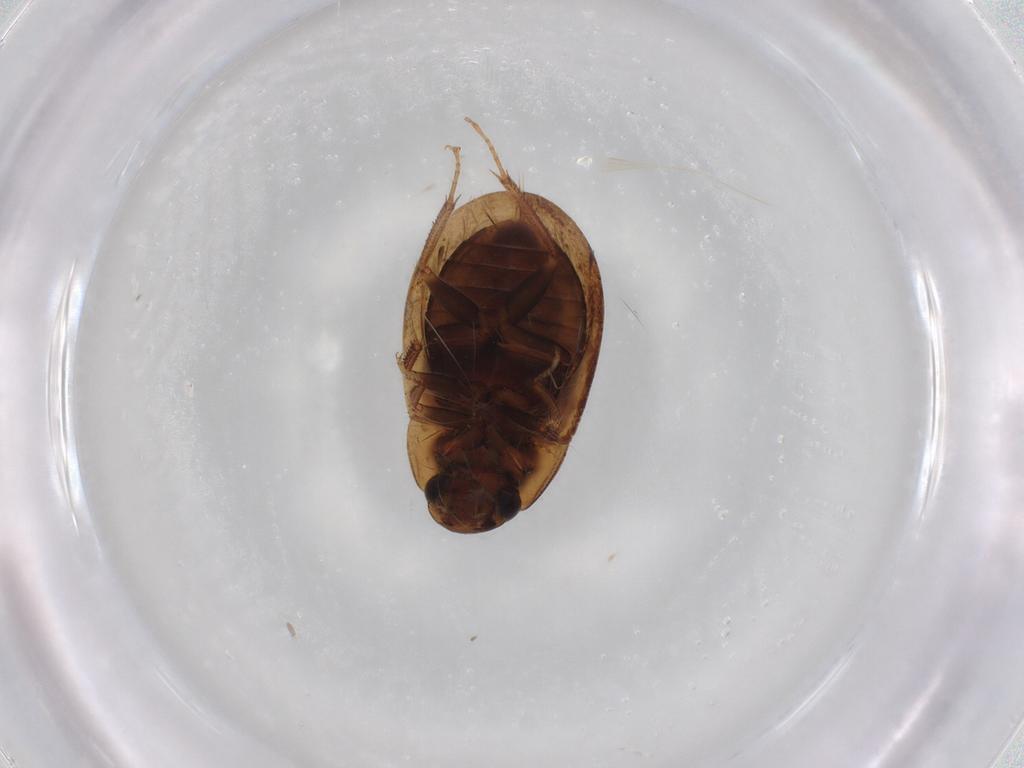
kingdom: Animalia
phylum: Arthropoda
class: Insecta
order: Coleoptera
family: Hydrophilidae
